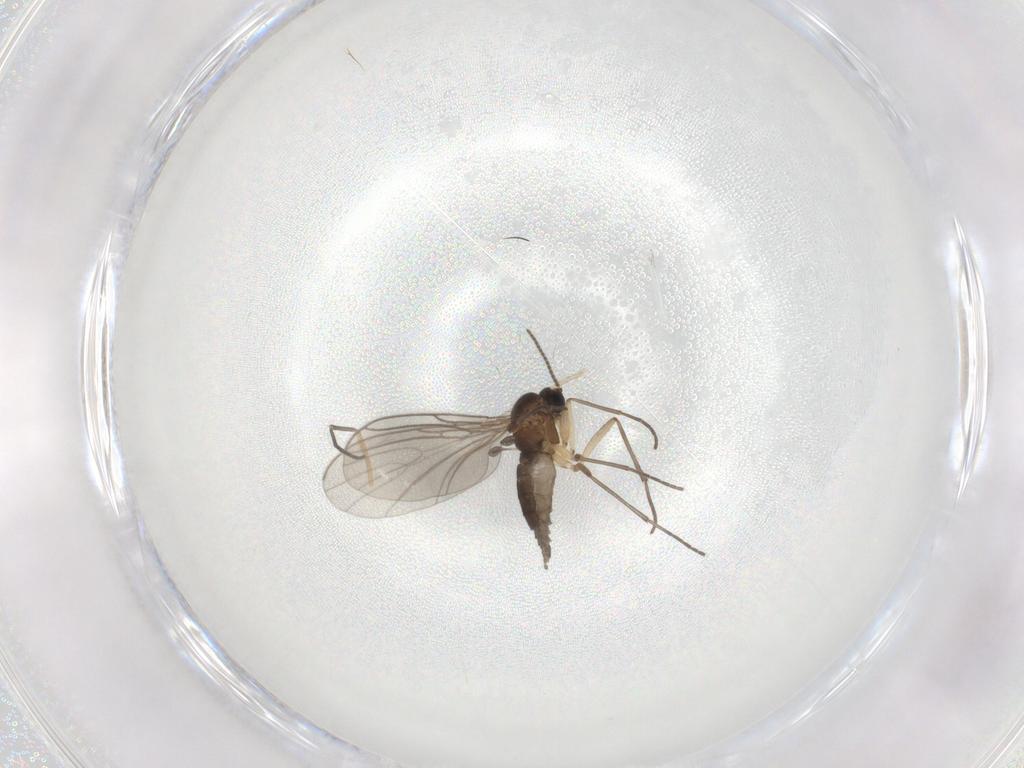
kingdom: Animalia
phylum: Arthropoda
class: Insecta
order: Diptera
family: Sciaridae
